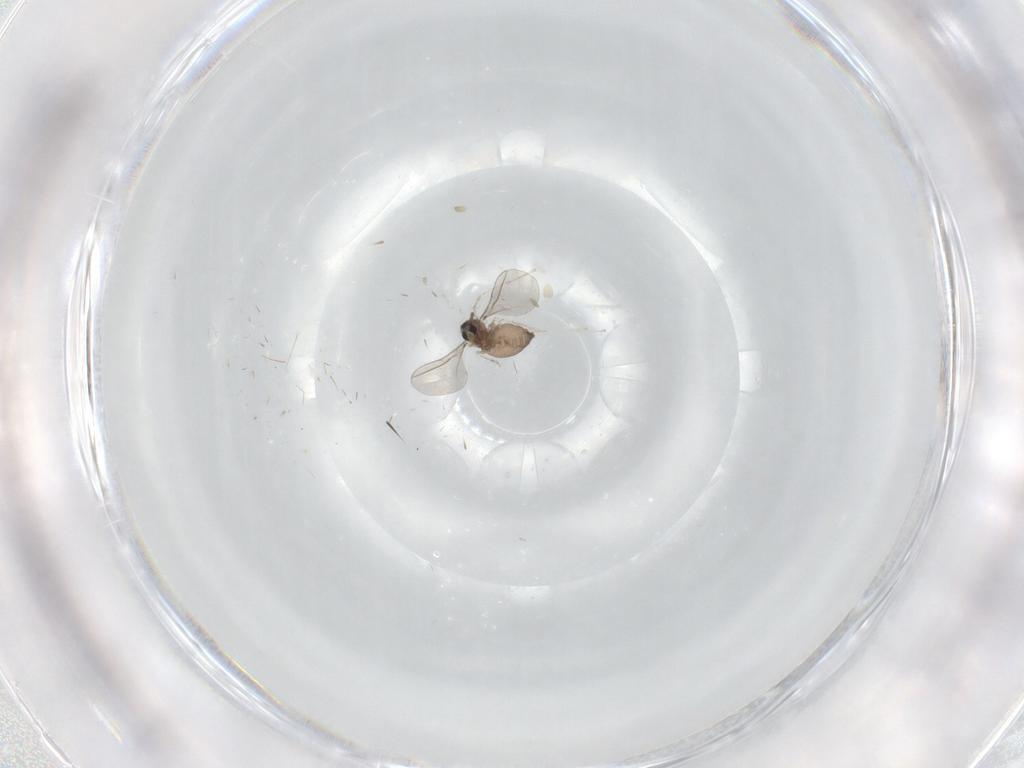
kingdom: Animalia
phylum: Arthropoda
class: Insecta
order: Diptera
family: Cecidomyiidae
